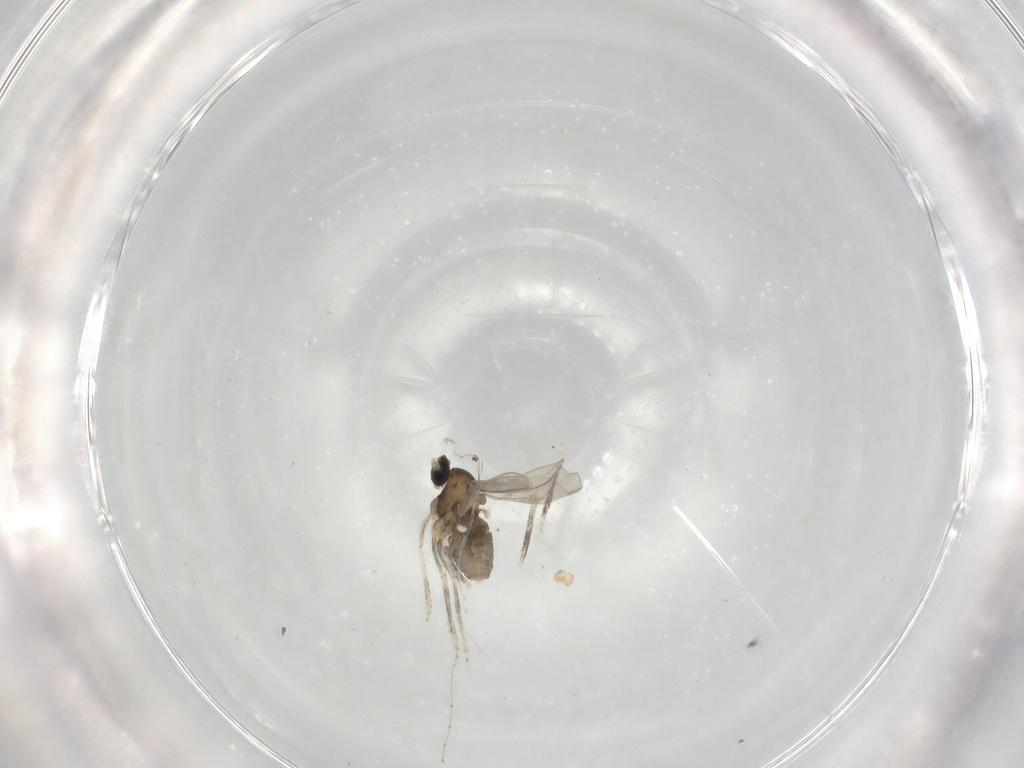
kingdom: Animalia
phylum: Arthropoda
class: Insecta
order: Diptera
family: Cecidomyiidae
